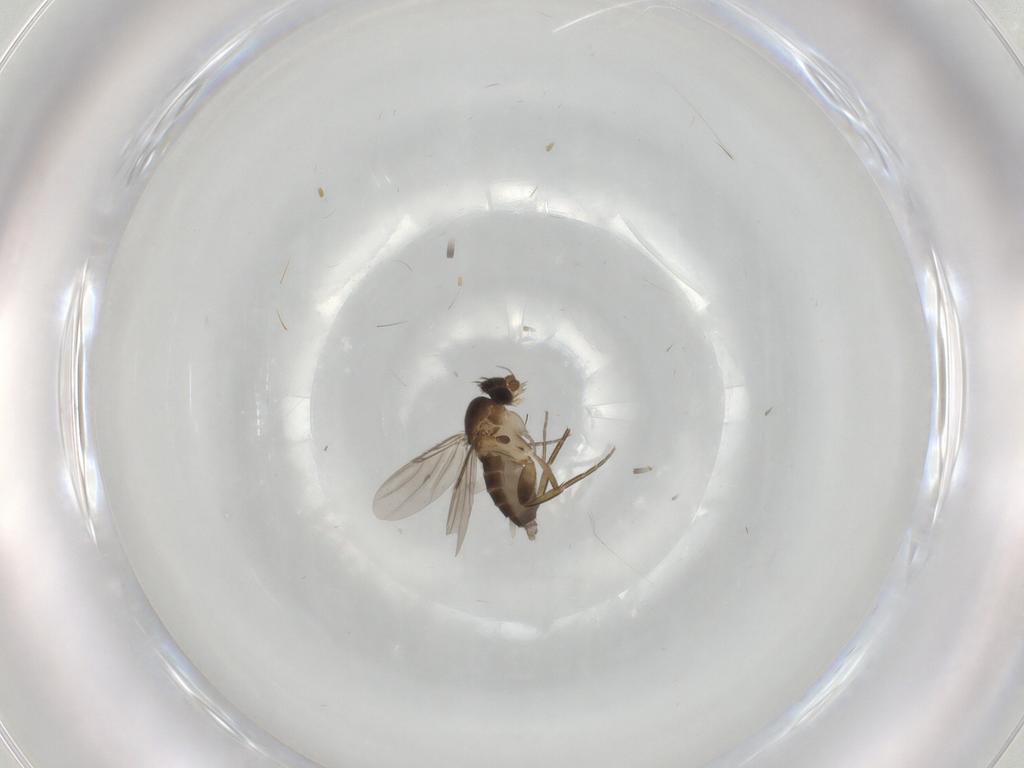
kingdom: Animalia
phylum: Arthropoda
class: Insecta
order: Diptera
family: Phoridae
